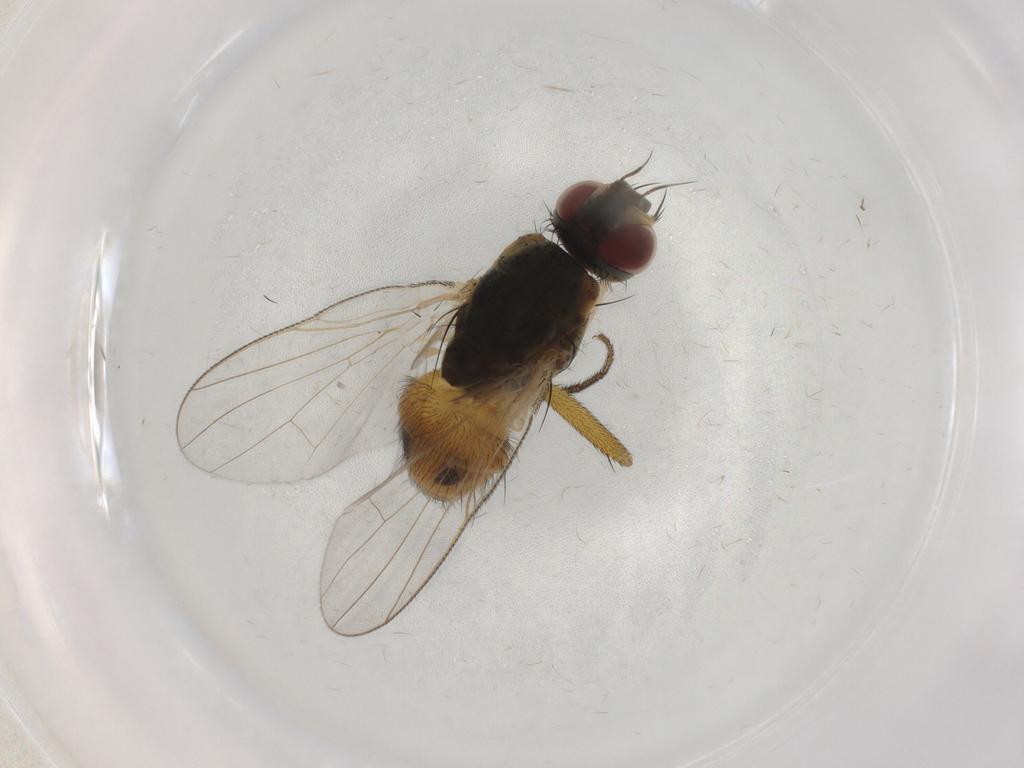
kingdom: Animalia
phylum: Arthropoda
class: Insecta
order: Diptera
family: Muscidae
